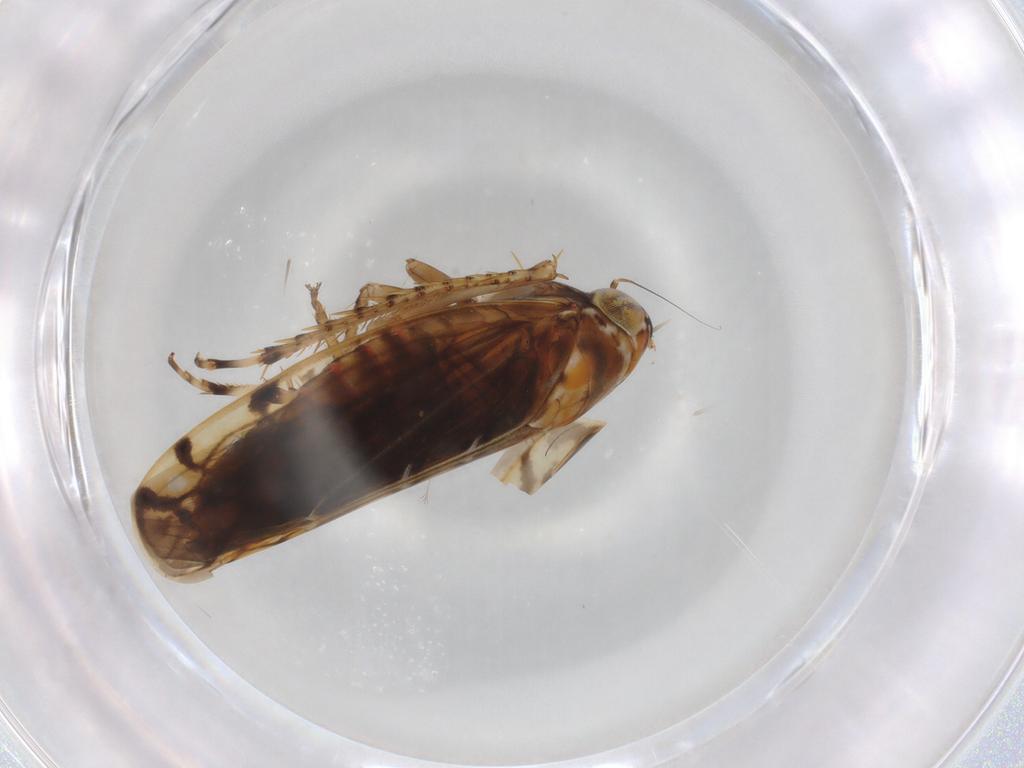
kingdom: Animalia
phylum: Arthropoda
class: Insecta
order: Hemiptera
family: Cicadellidae
